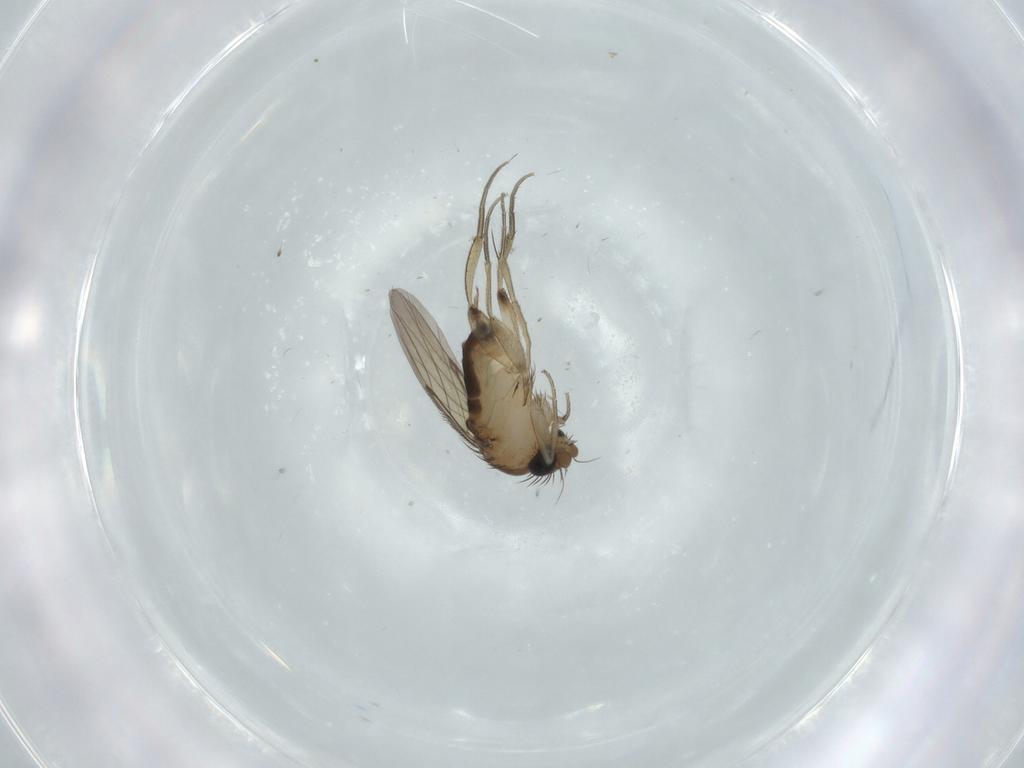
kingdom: Animalia
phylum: Arthropoda
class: Insecta
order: Diptera
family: Phoridae
